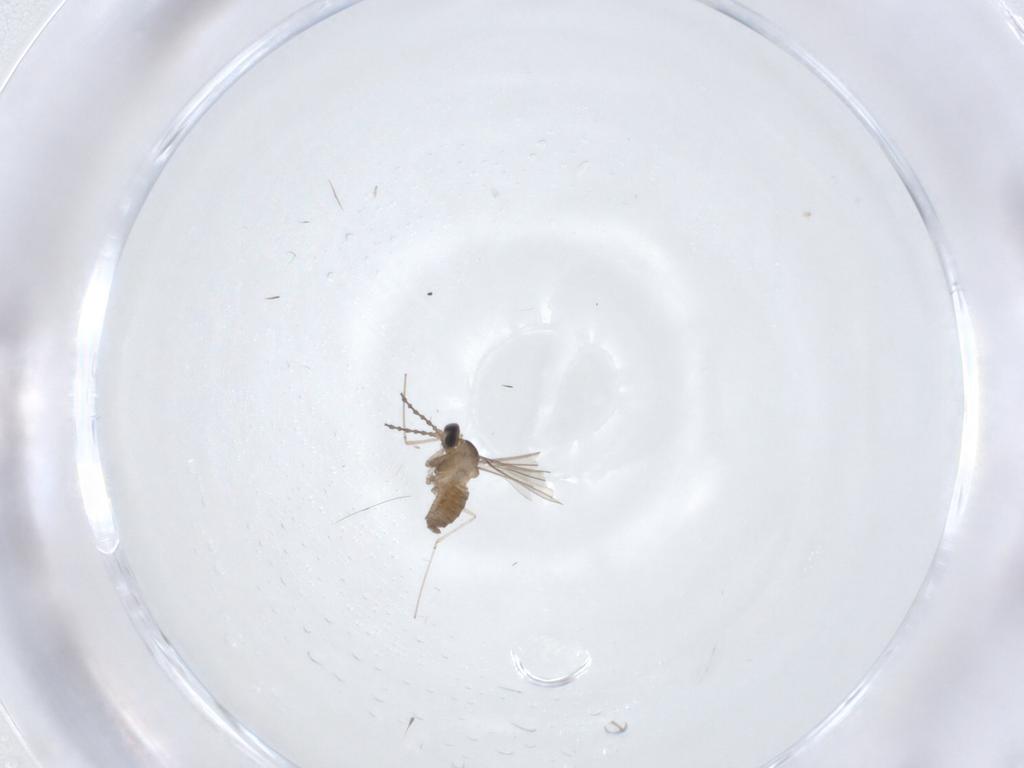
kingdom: Animalia
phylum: Arthropoda
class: Insecta
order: Diptera
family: Cecidomyiidae
